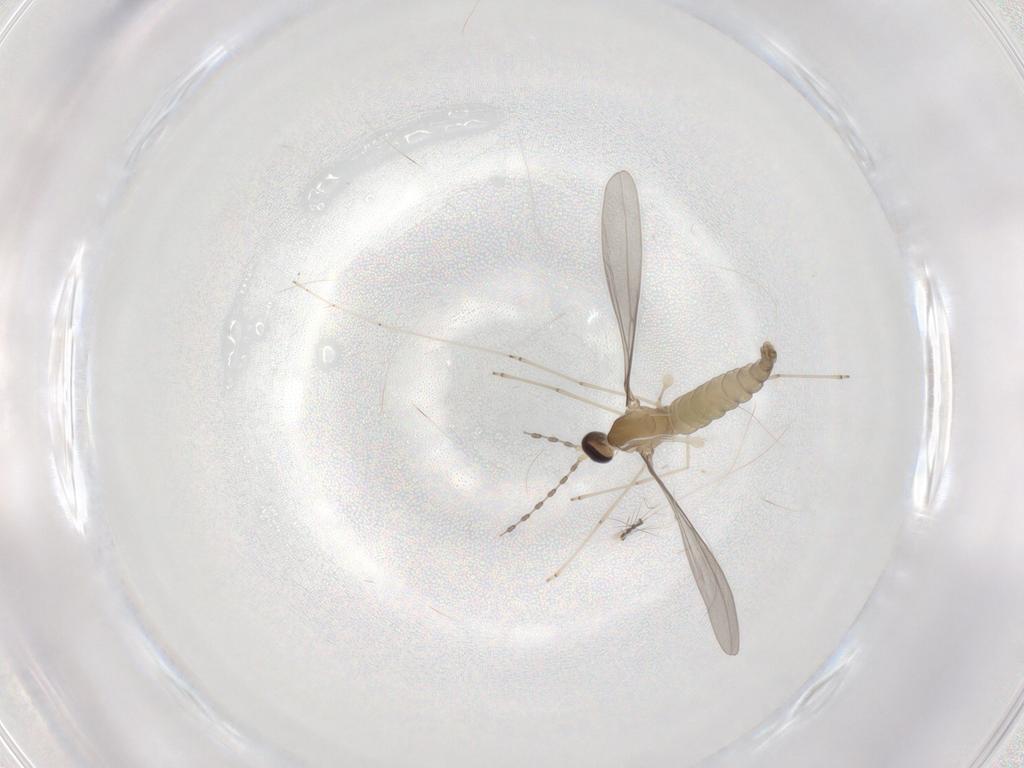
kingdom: Animalia
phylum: Arthropoda
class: Insecta
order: Diptera
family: Cecidomyiidae
